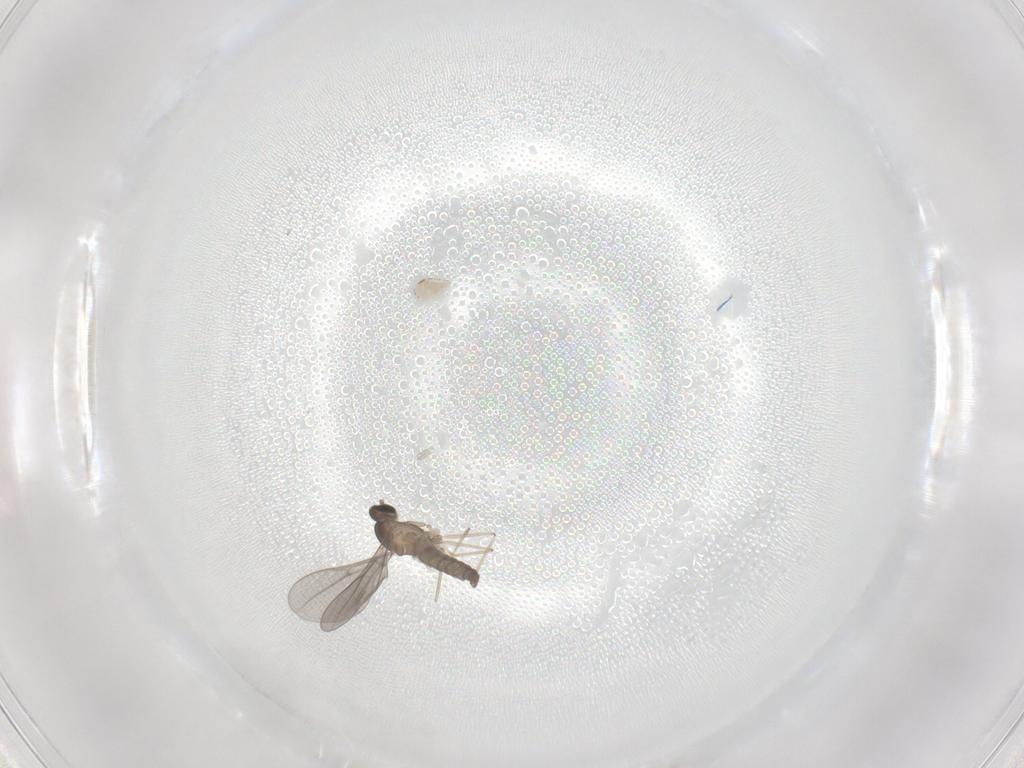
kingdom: Animalia
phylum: Arthropoda
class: Insecta
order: Diptera
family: Cecidomyiidae
